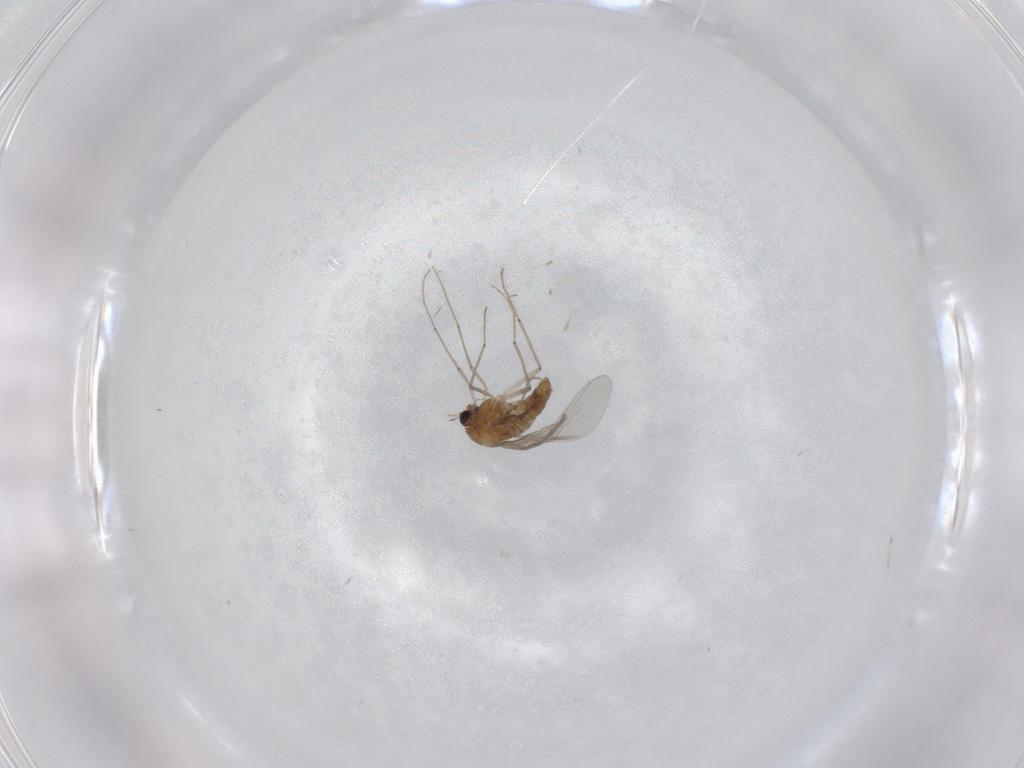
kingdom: Animalia
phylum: Arthropoda
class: Insecta
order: Diptera
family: Chironomidae
